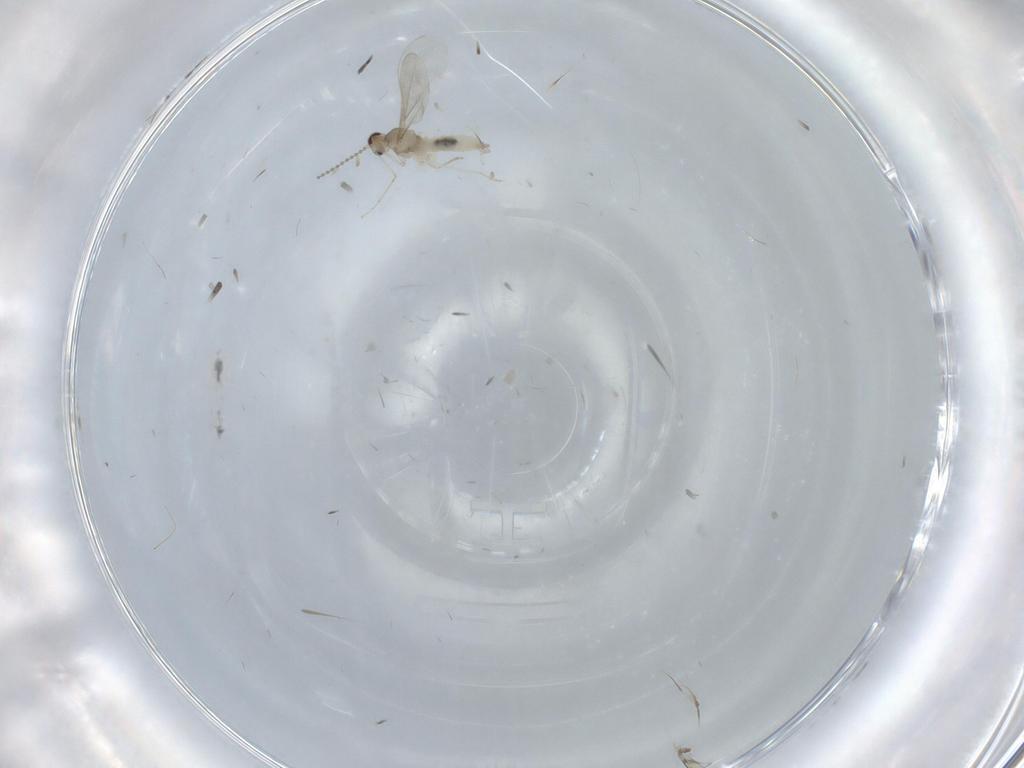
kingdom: Animalia
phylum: Arthropoda
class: Insecta
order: Diptera
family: Cecidomyiidae
